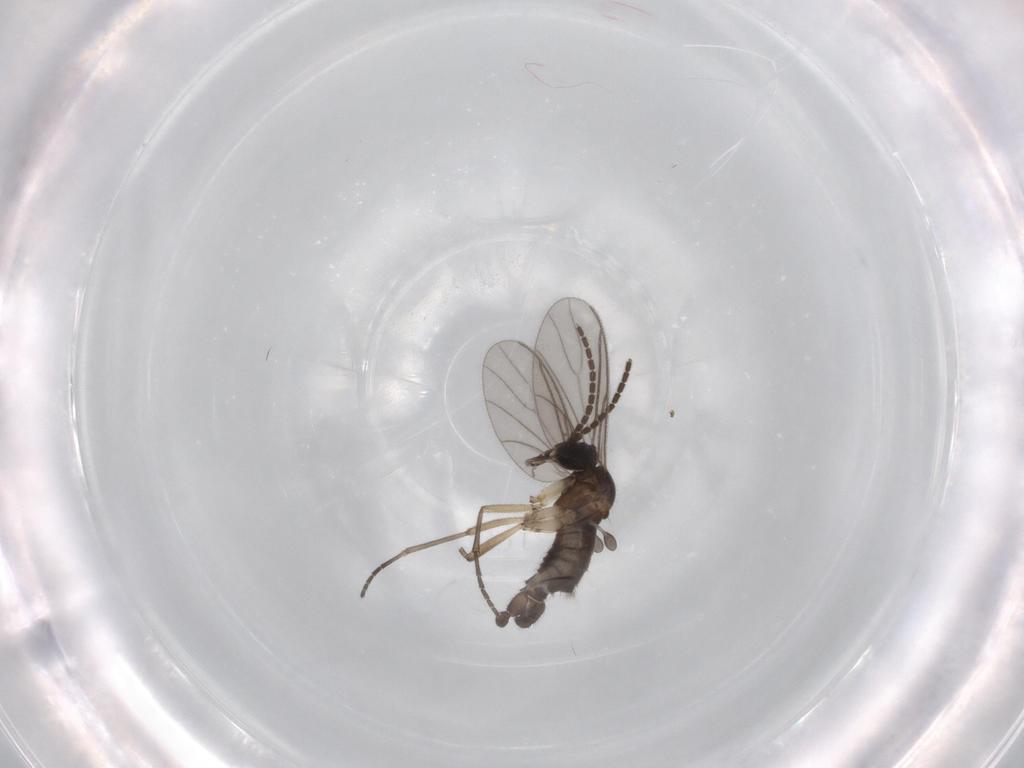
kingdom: Animalia
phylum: Arthropoda
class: Insecta
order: Diptera
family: Sciaridae
